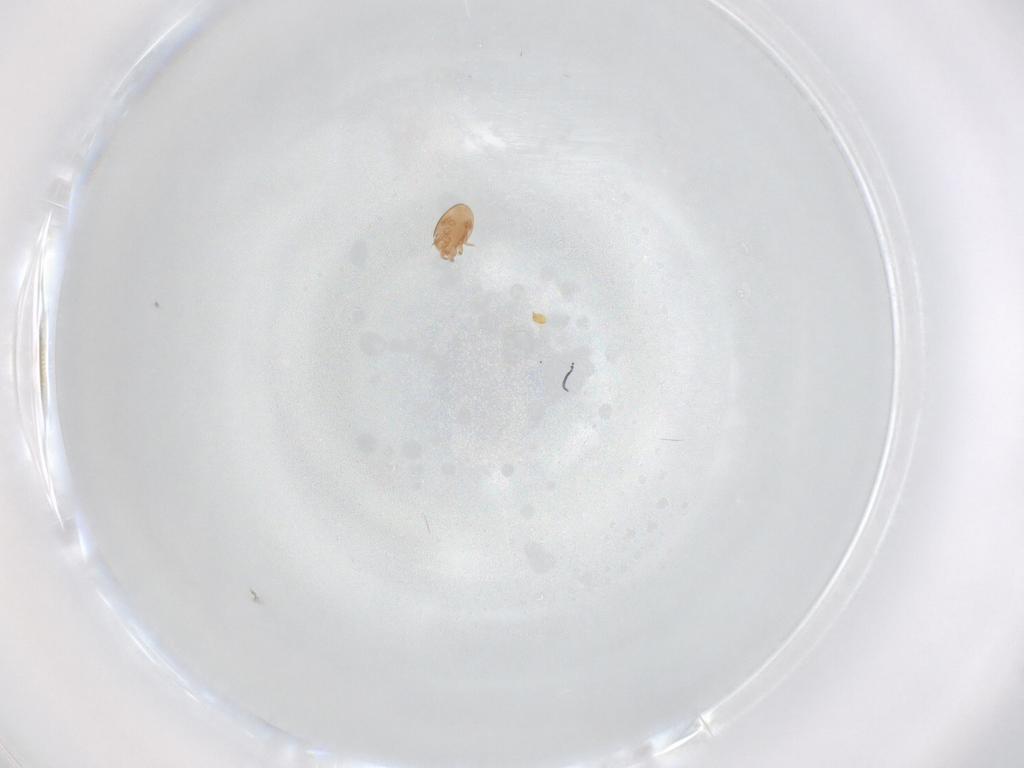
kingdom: Animalia
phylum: Arthropoda
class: Arachnida
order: Mesostigmata
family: Trematuridae
